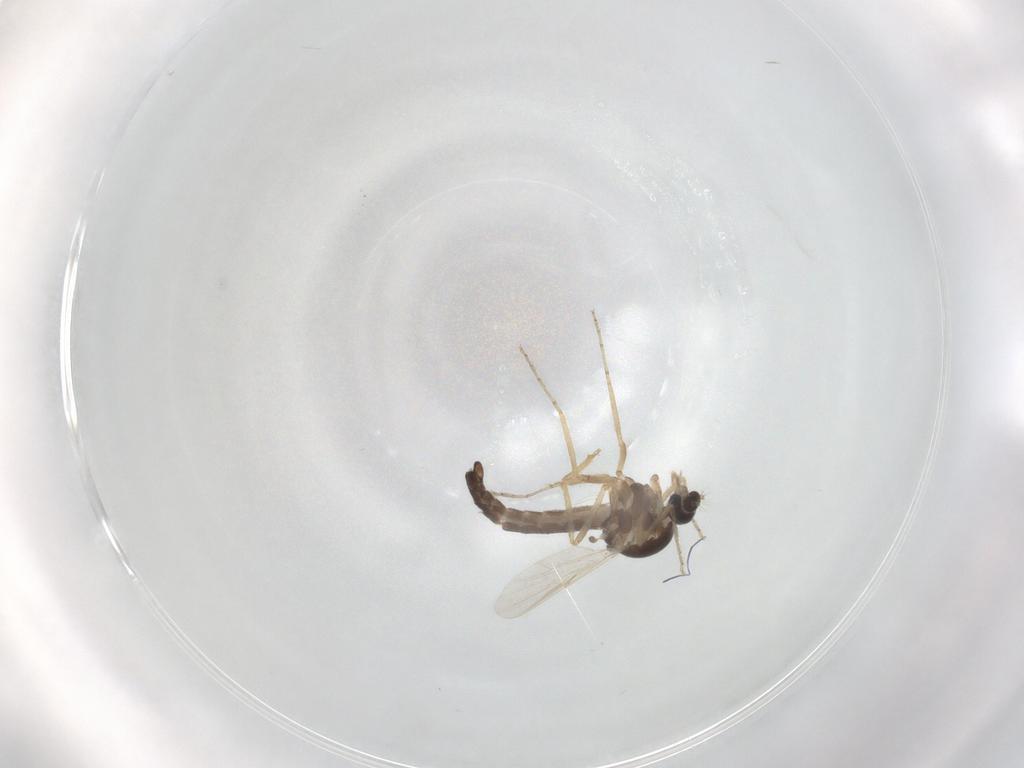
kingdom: Animalia
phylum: Arthropoda
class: Insecta
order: Diptera
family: Ceratopogonidae
